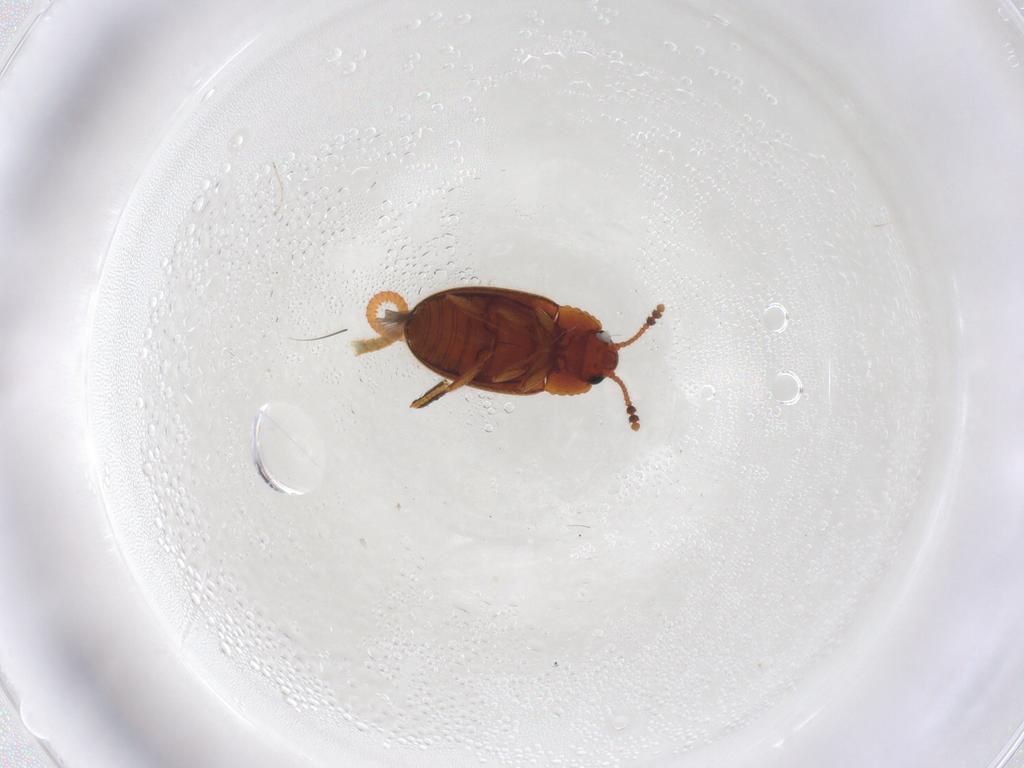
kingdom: Animalia
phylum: Arthropoda
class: Insecta
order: Coleoptera
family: Erotylidae
